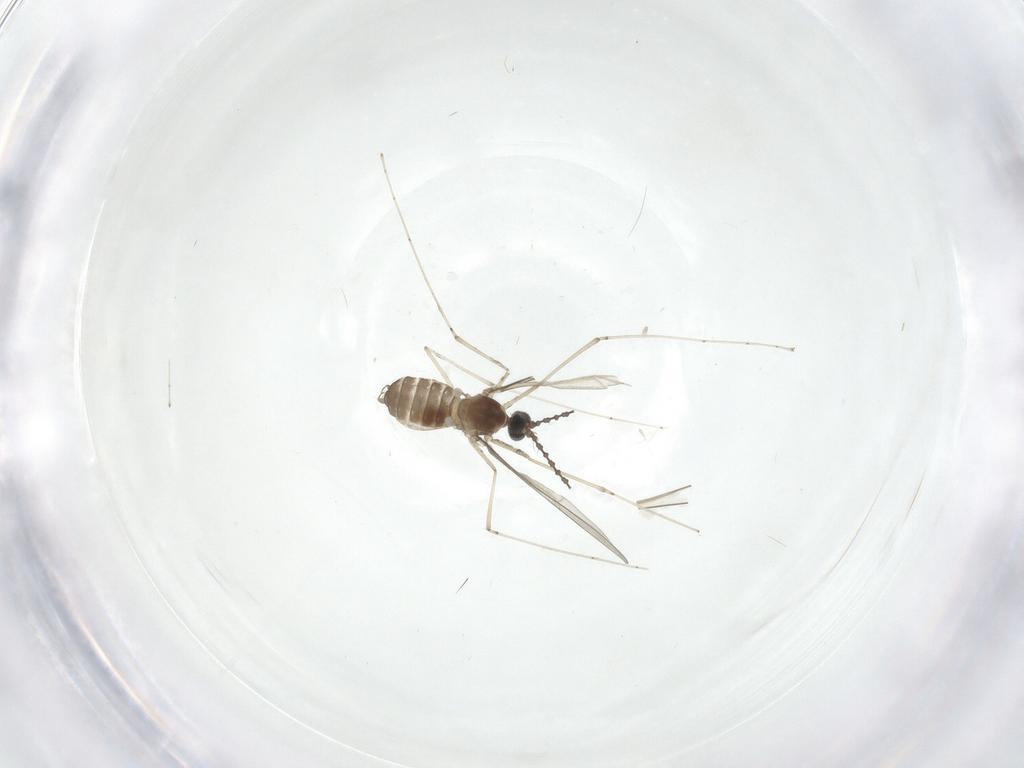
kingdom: Animalia
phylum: Arthropoda
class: Insecta
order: Diptera
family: Chironomidae
